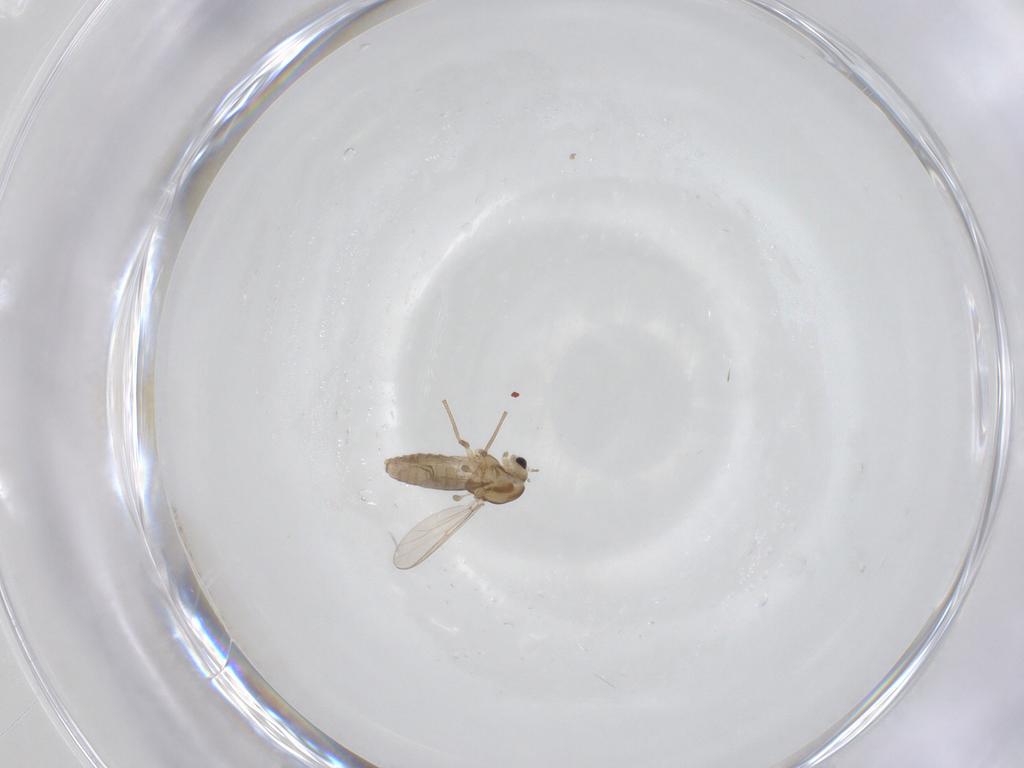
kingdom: Animalia
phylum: Arthropoda
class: Insecta
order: Diptera
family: Chironomidae
